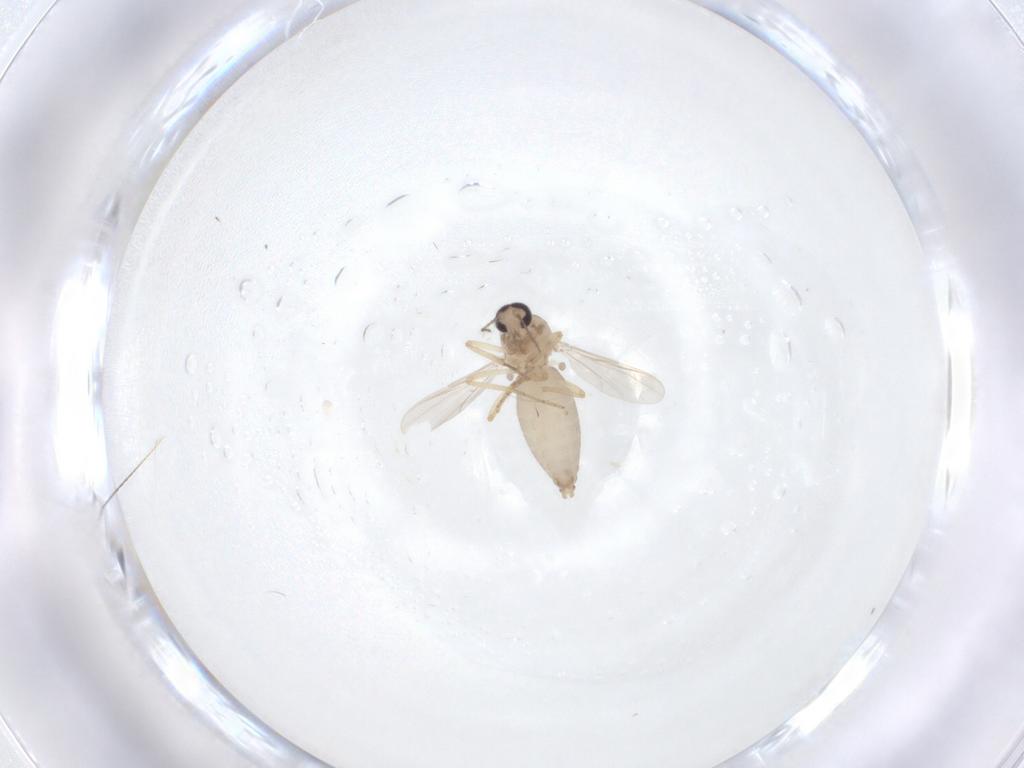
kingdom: Animalia
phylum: Arthropoda
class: Insecta
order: Diptera
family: Ceratopogonidae
